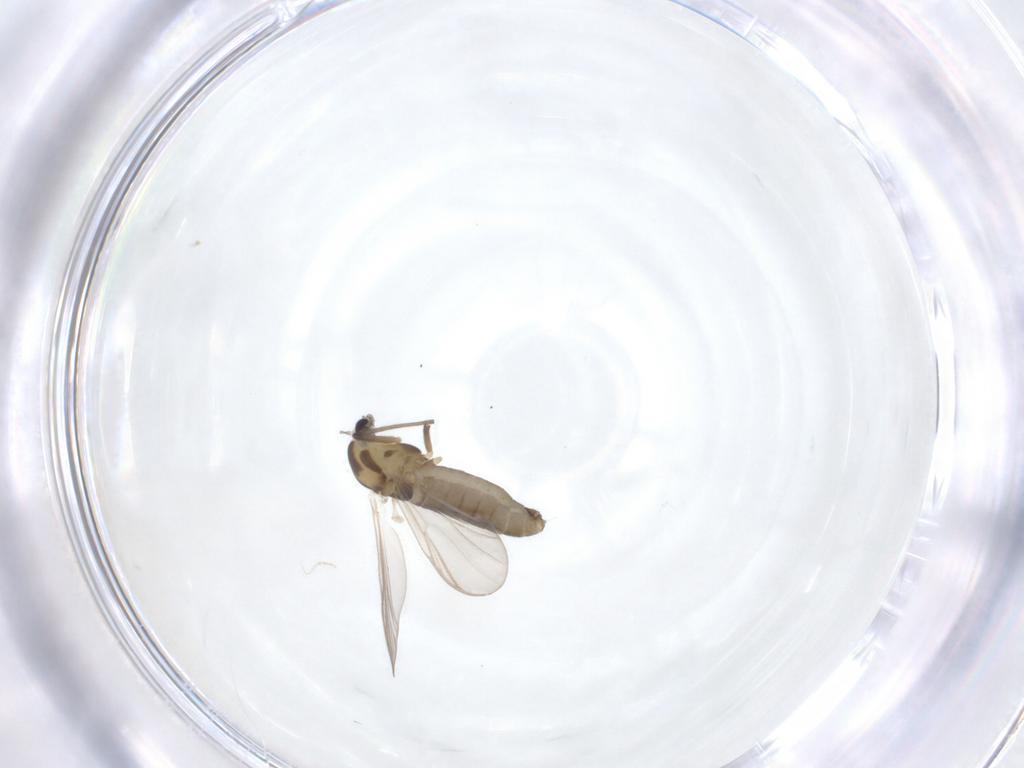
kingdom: Animalia
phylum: Arthropoda
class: Insecta
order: Diptera
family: Chironomidae
